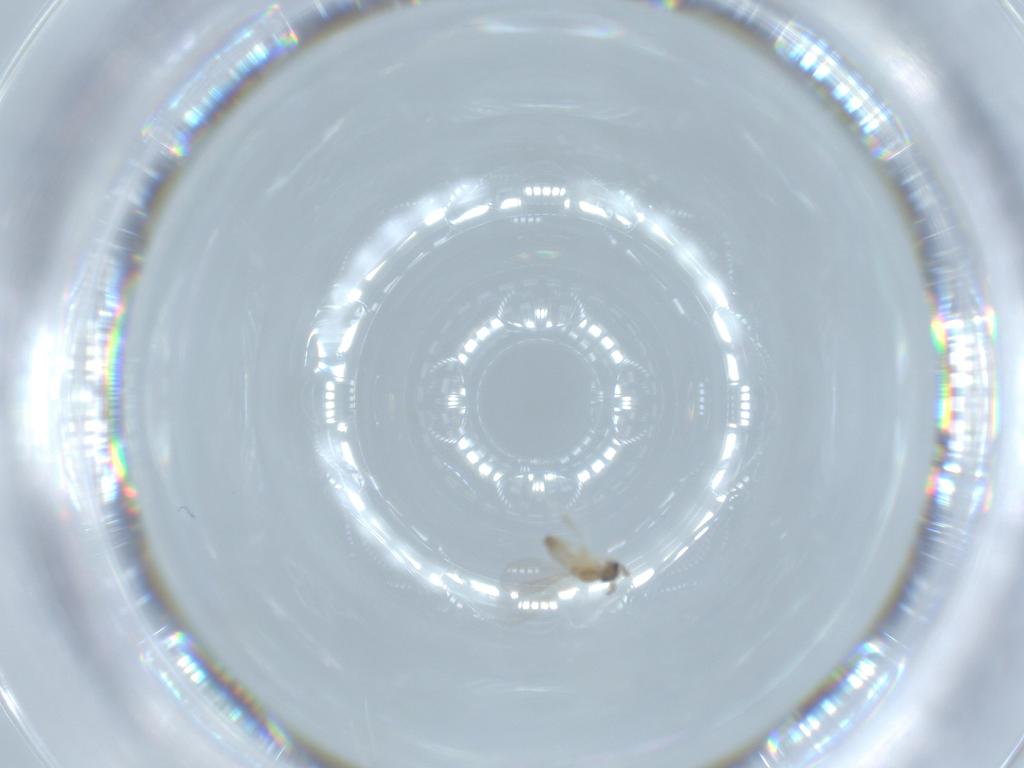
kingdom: Animalia
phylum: Arthropoda
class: Insecta
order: Diptera
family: Cecidomyiidae
